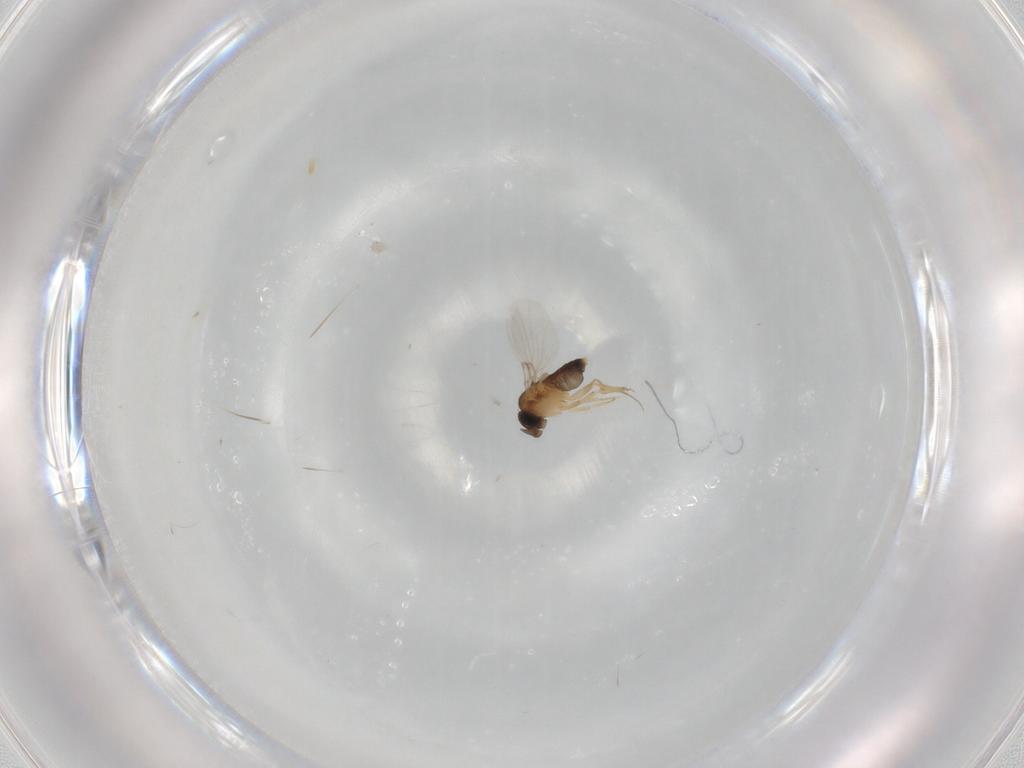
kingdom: Animalia
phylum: Arthropoda
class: Insecta
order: Diptera
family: Phoridae
